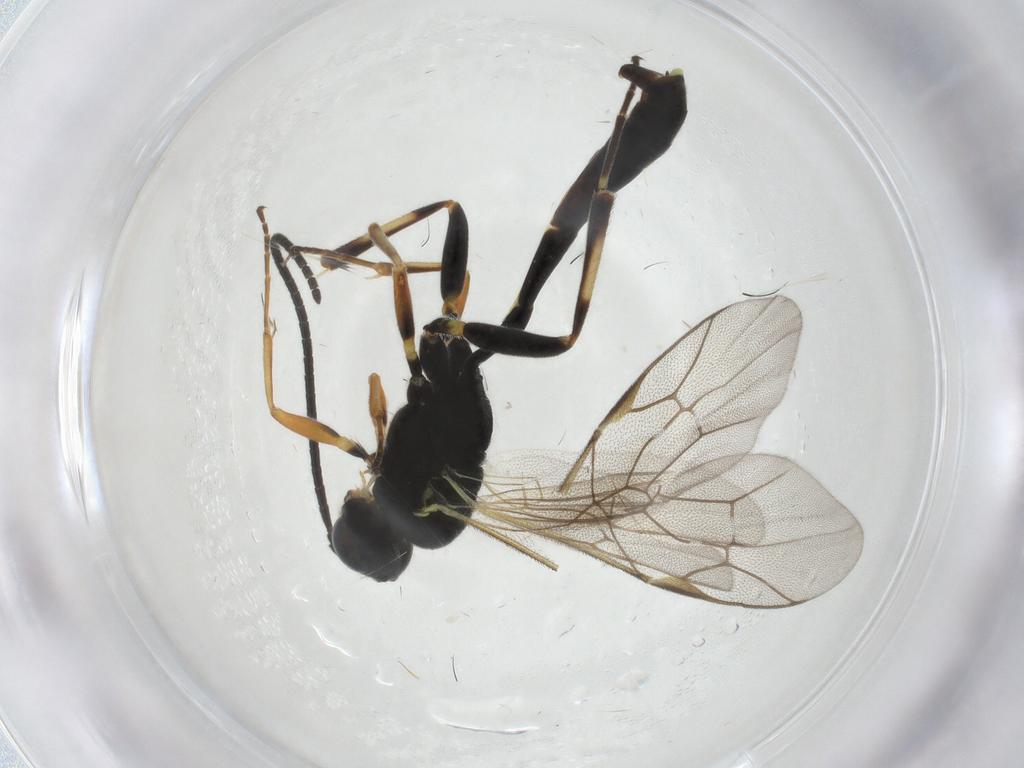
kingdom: Animalia
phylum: Arthropoda
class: Insecta
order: Hymenoptera
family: Ichneumonidae
